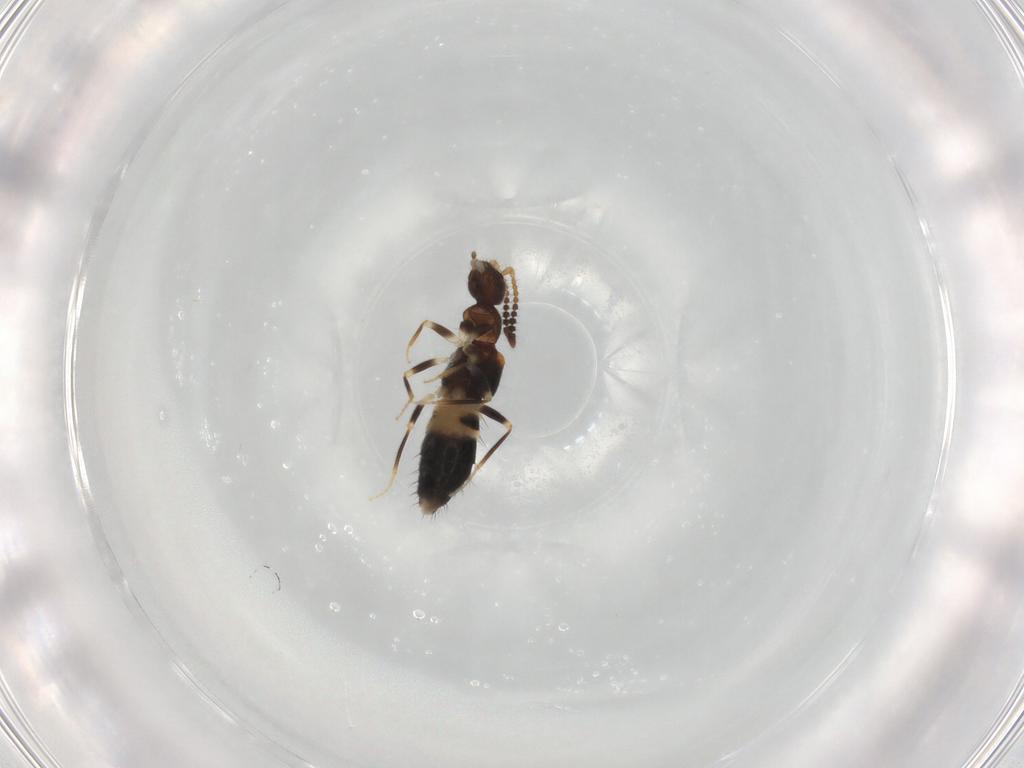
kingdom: Animalia
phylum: Arthropoda
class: Insecta
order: Coleoptera
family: Staphylinidae
